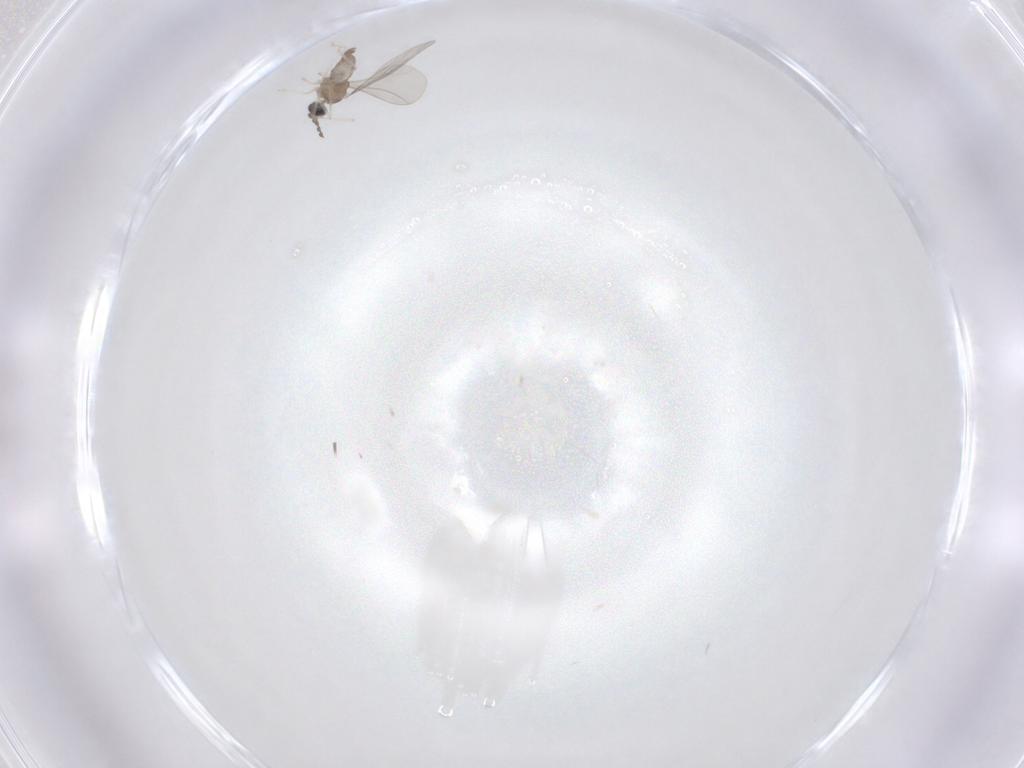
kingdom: Animalia
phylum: Arthropoda
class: Insecta
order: Diptera
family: Cecidomyiidae
